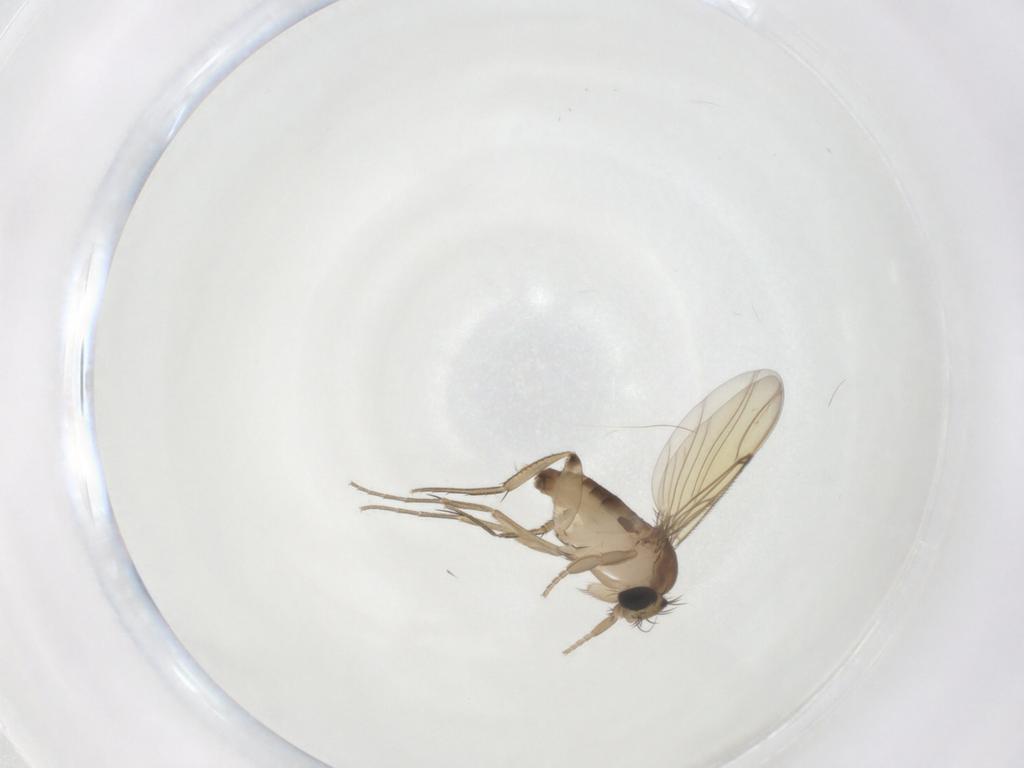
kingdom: Animalia
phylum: Arthropoda
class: Insecta
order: Diptera
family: Phoridae
